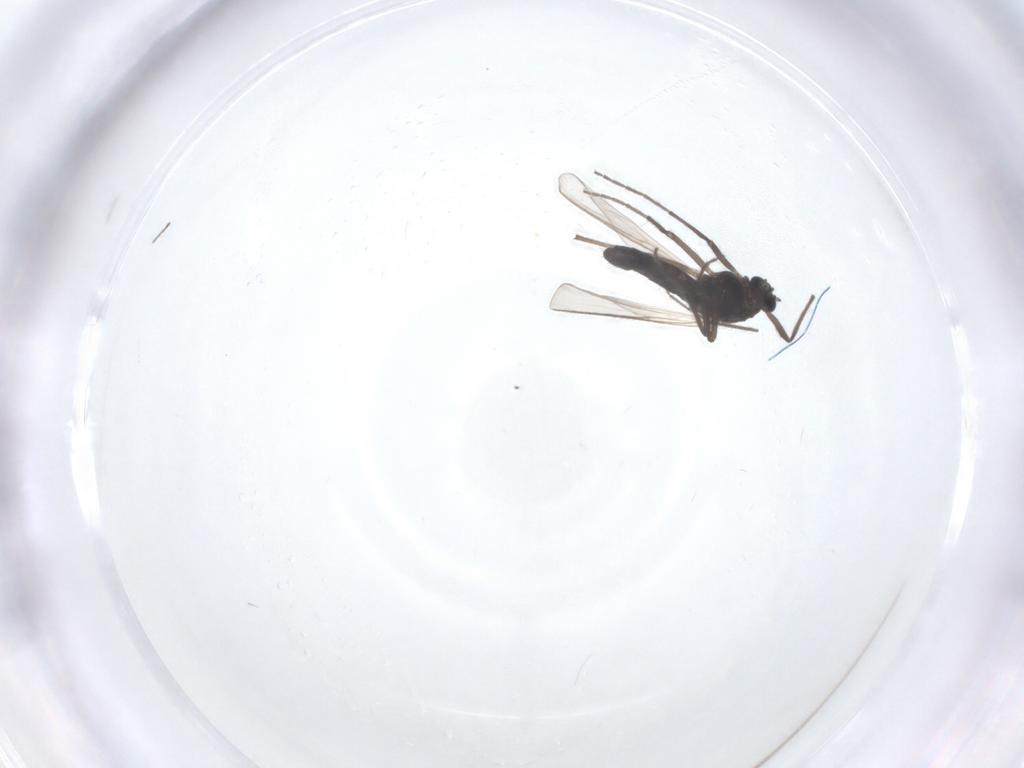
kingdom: Animalia
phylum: Arthropoda
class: Insecta
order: Diptera
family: Chironomidae
